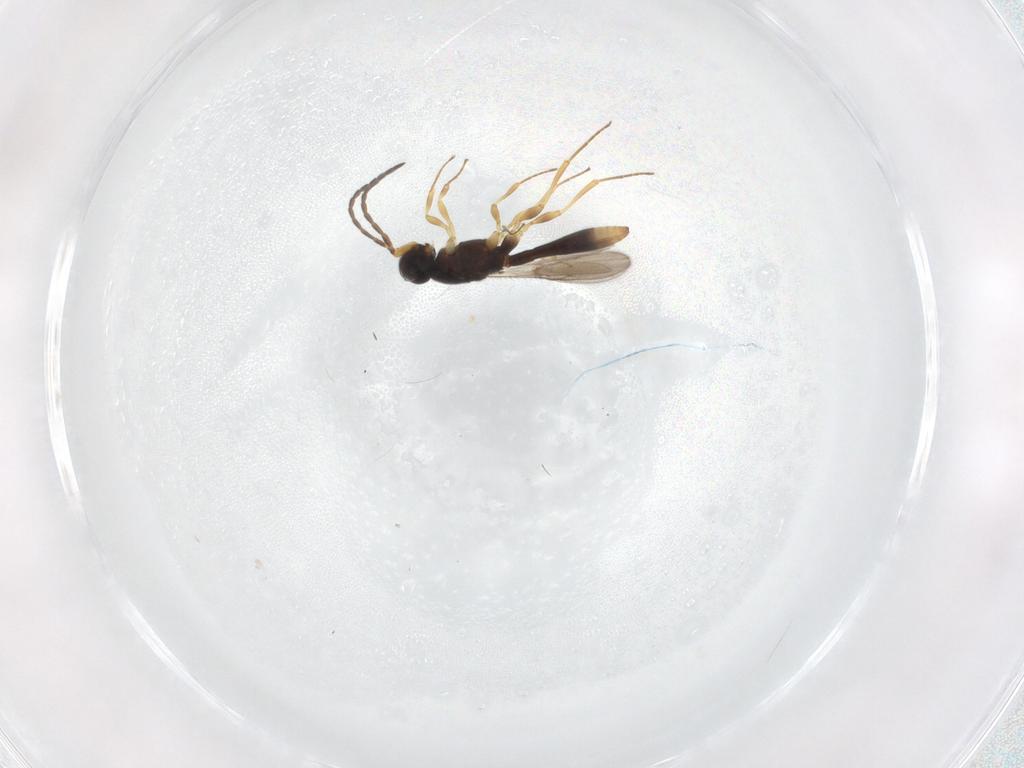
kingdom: Animalia
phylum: Arthropoda
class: Insecta
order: Hymenoptera
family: Scelionidae
